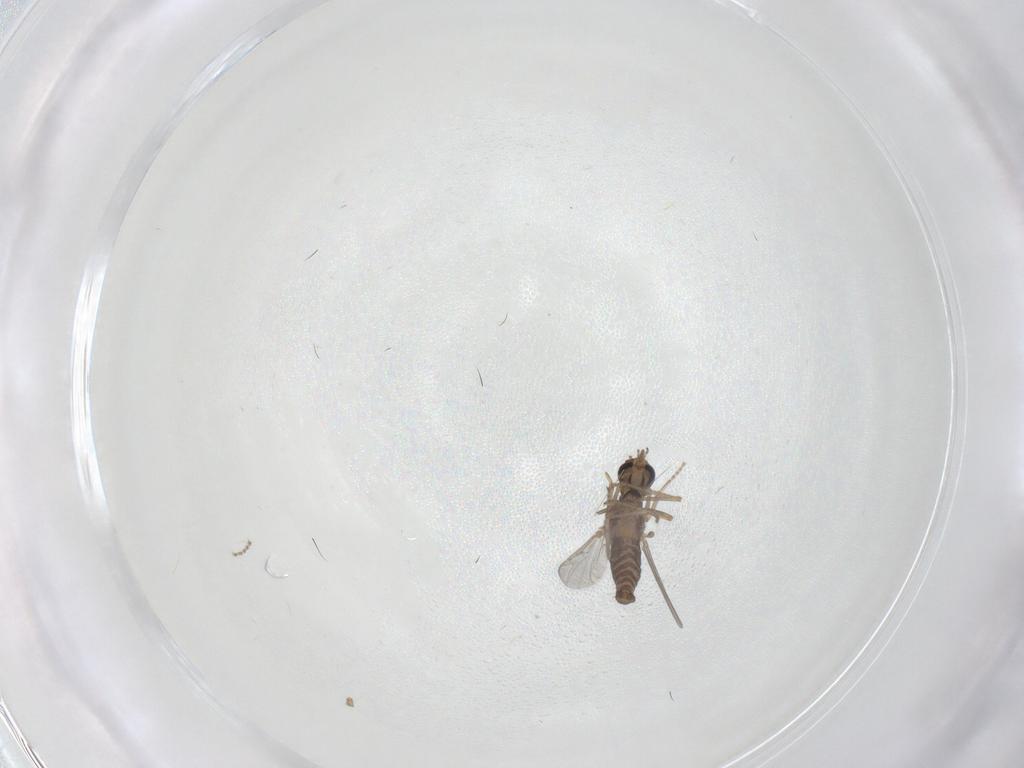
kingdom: Animalia
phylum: Arthropoda
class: Insecta
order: Diptera
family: Ceratopogonidae
